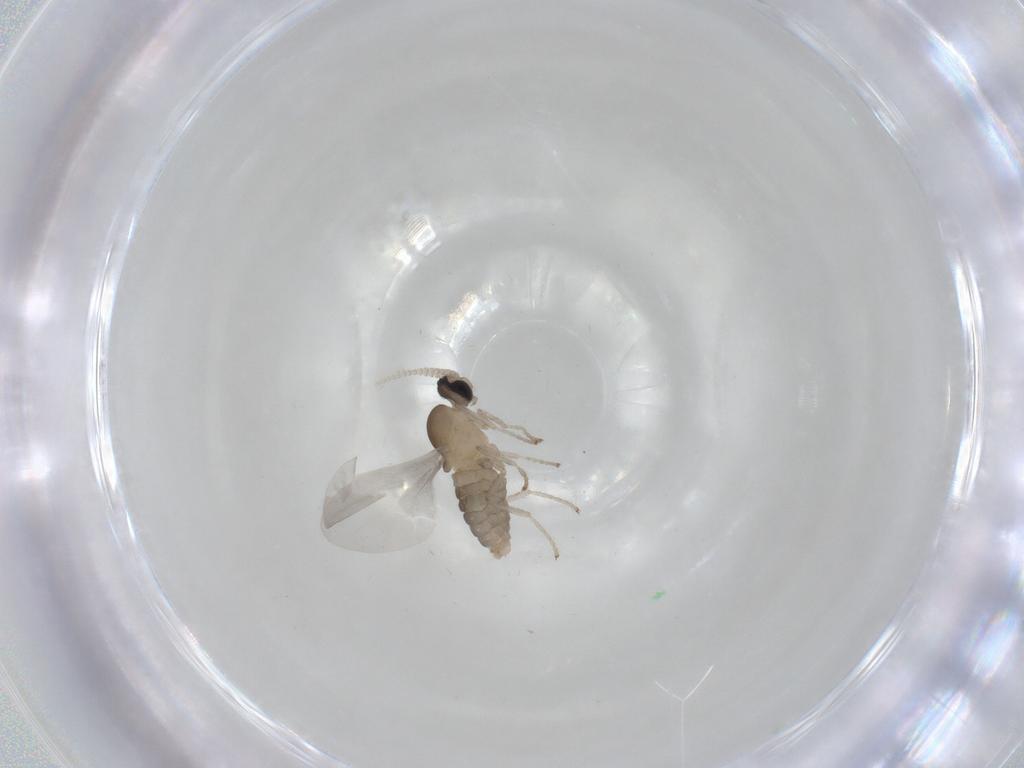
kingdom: Animalia
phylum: Arthropoda
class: Insecta
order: Diptera
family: Cecidomyiidae
